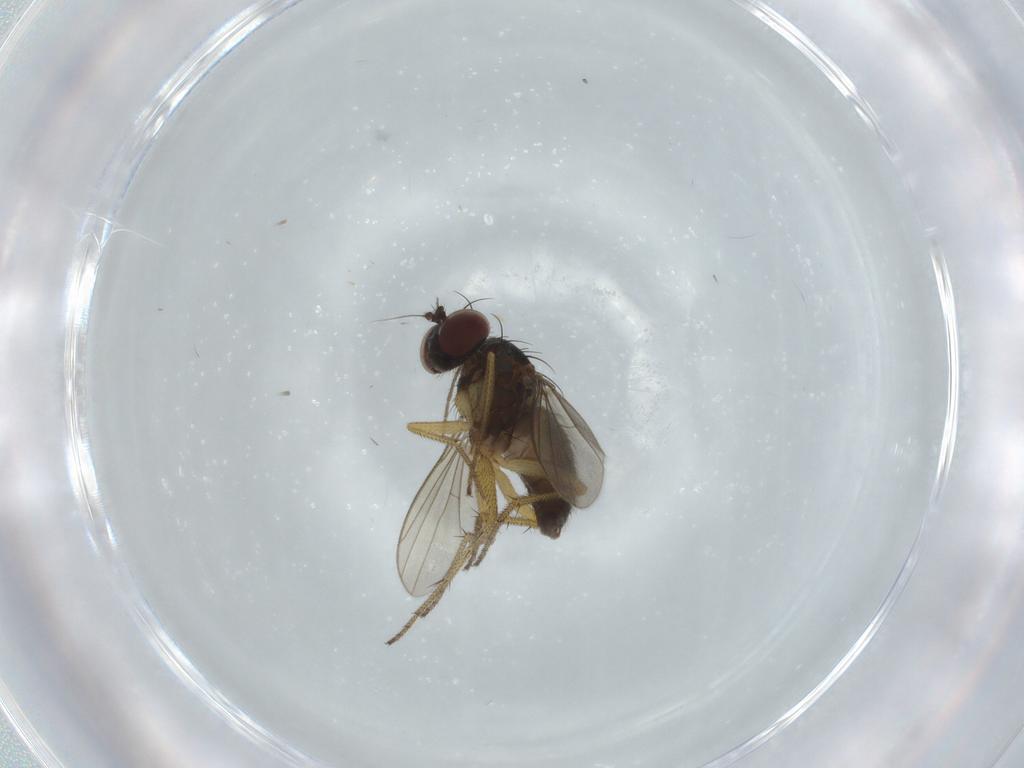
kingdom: Animalia
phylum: Arthropoda
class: Insecta
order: Diptera
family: Dolichopodidae
